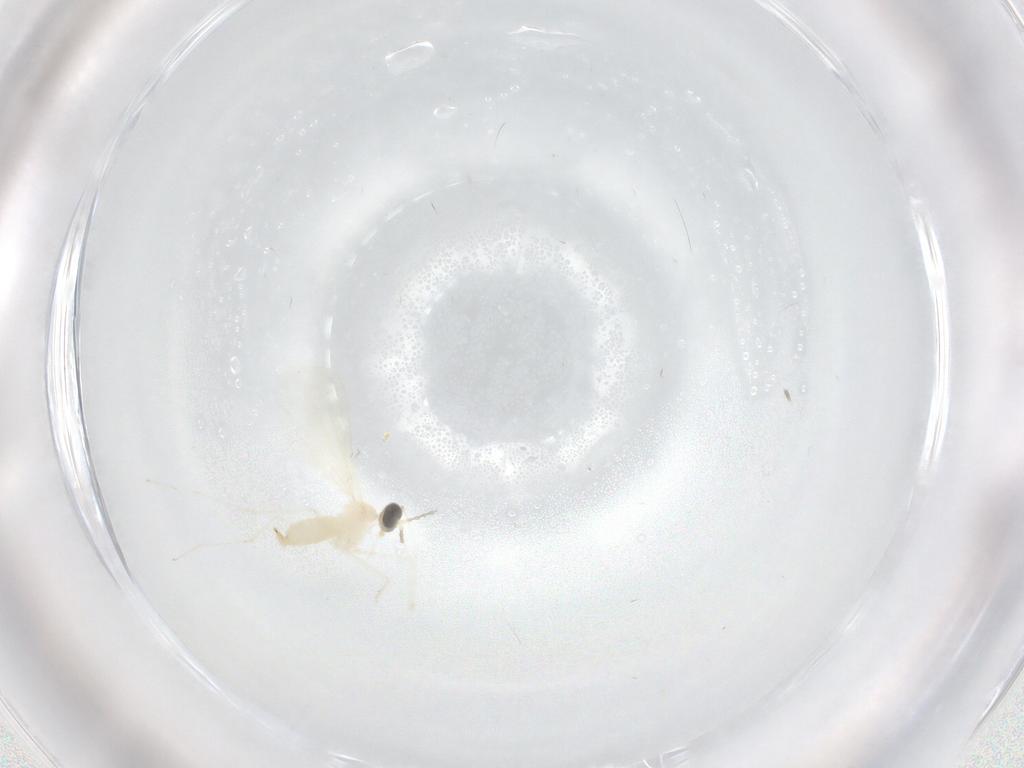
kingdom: Animalia
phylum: Arthropoda
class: Insecta
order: Diptera
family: Cecidomyiidae
